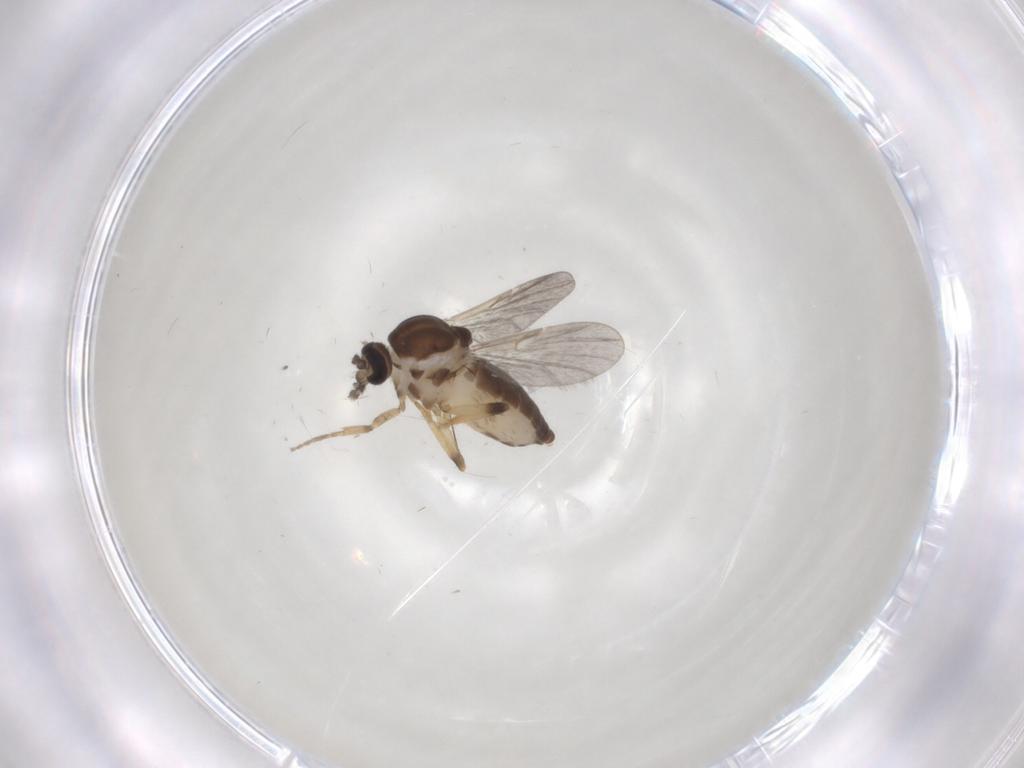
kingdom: Animalia
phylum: Arthropoda
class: Insecta
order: Diptera
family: Ceratopogonidae
